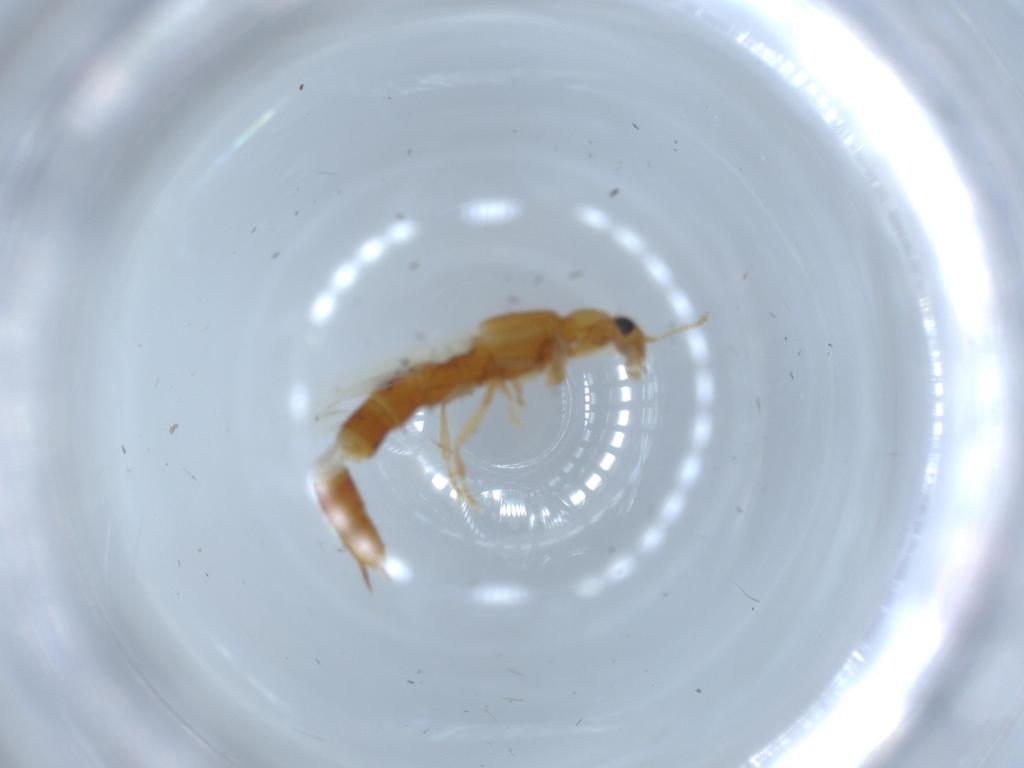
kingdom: Animalia
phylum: Arthropoda
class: Insecta
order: Coleoptera
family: Staphylinidae
